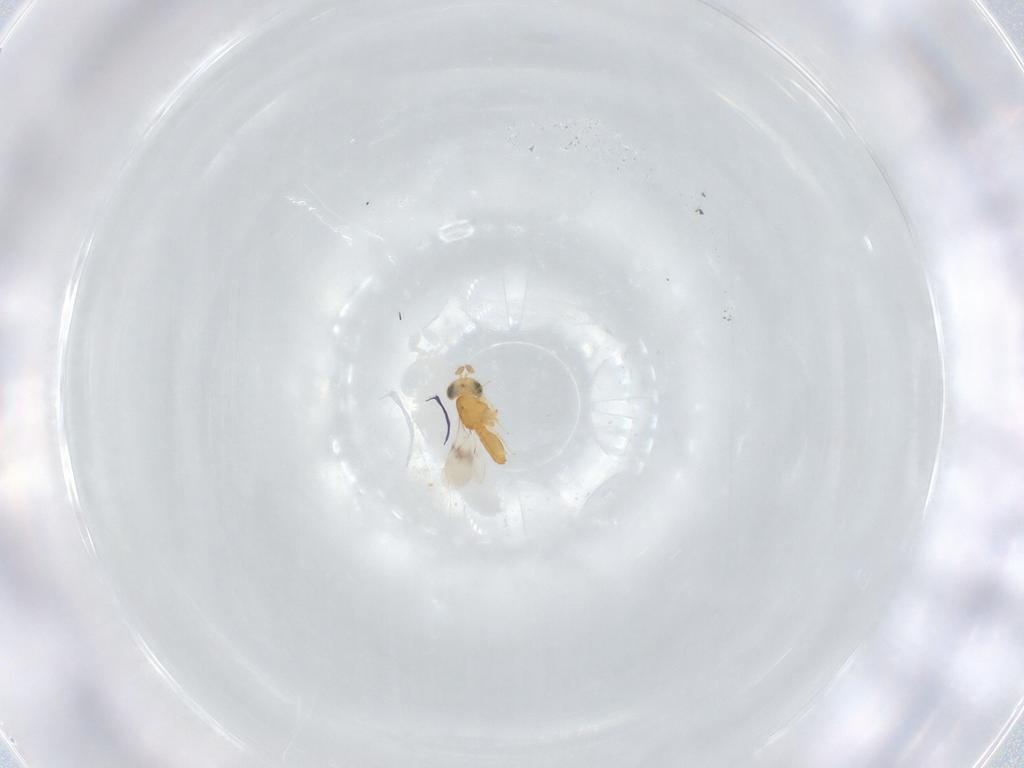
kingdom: Animalia
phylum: Arthropoda
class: Insecta
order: Hymenoptera
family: Scelionidae
